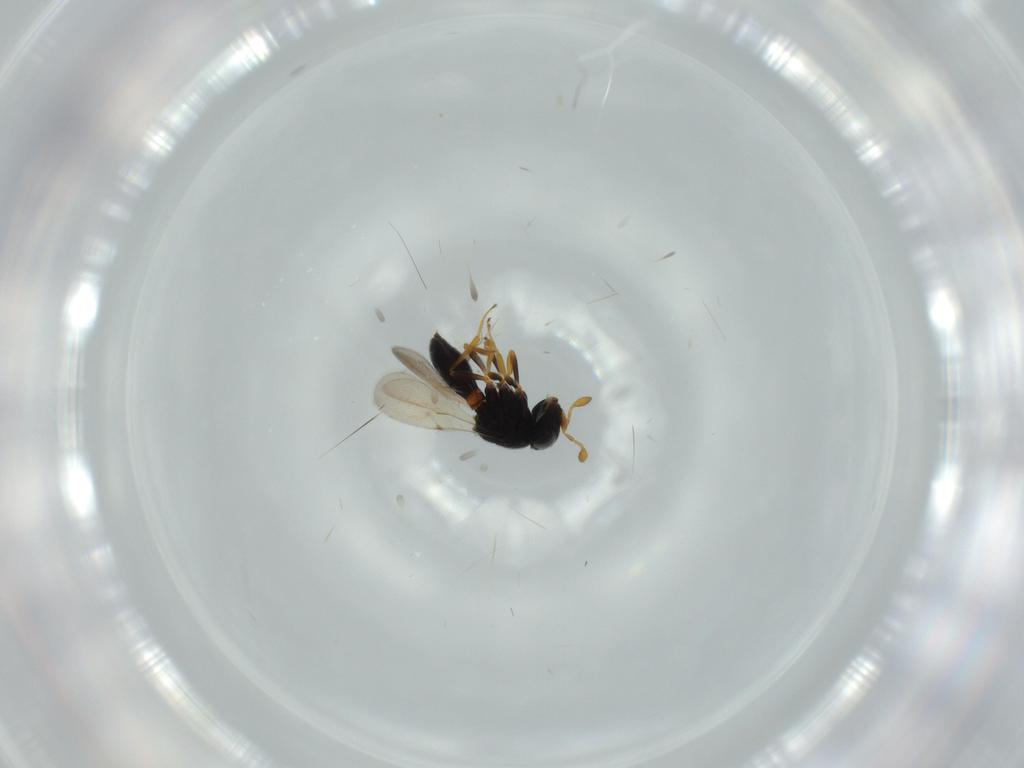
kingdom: Animalia
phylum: Arthropoda
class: Insecta
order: Hymenoptera
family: Scelionidae
